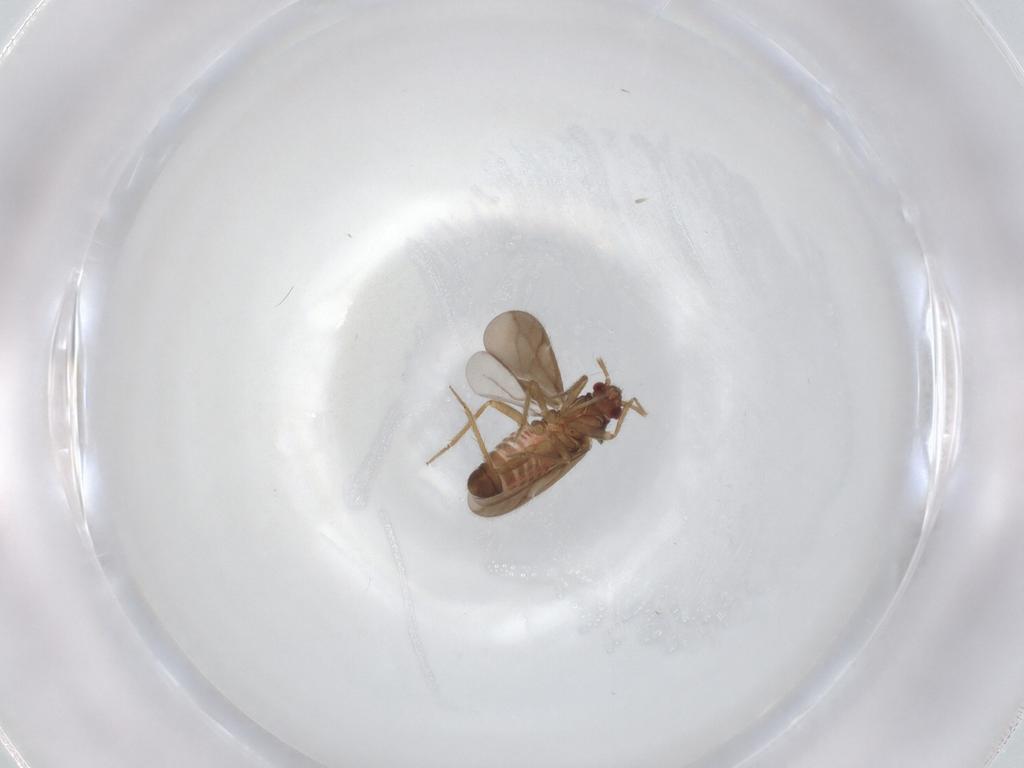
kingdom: Animalia
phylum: Arthropoda
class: Insecta
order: Hemiptera
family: Ceratocombidae
